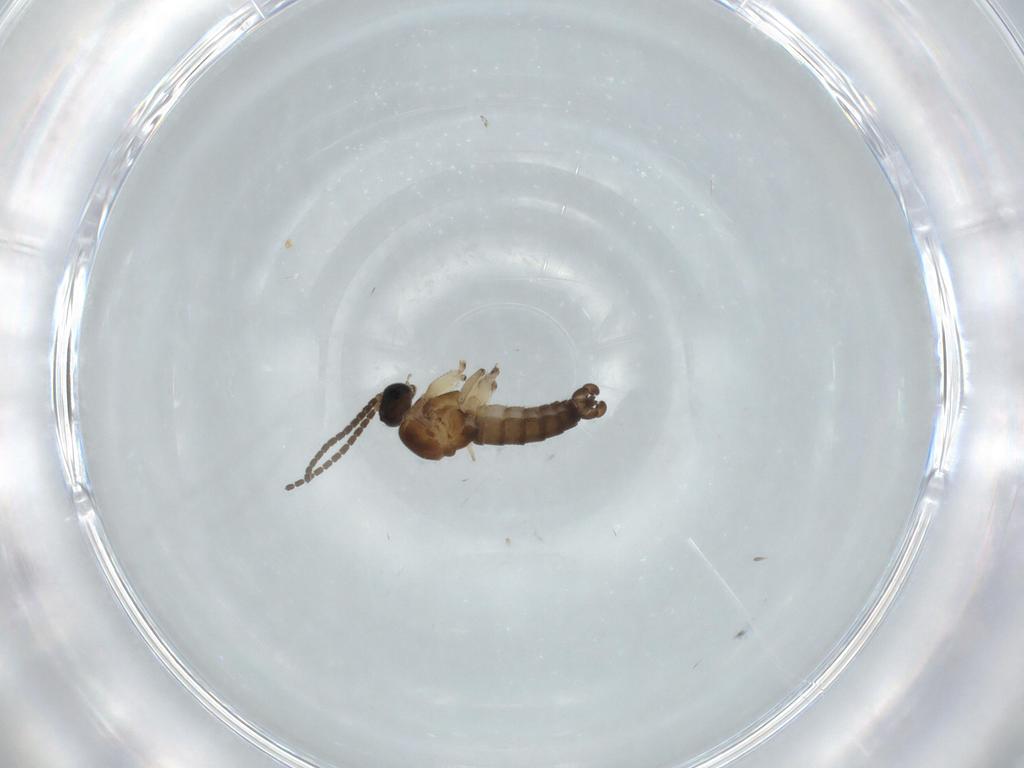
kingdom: Animalia
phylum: Arthropoda
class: Insecta
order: Diptera
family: Sciaridae
